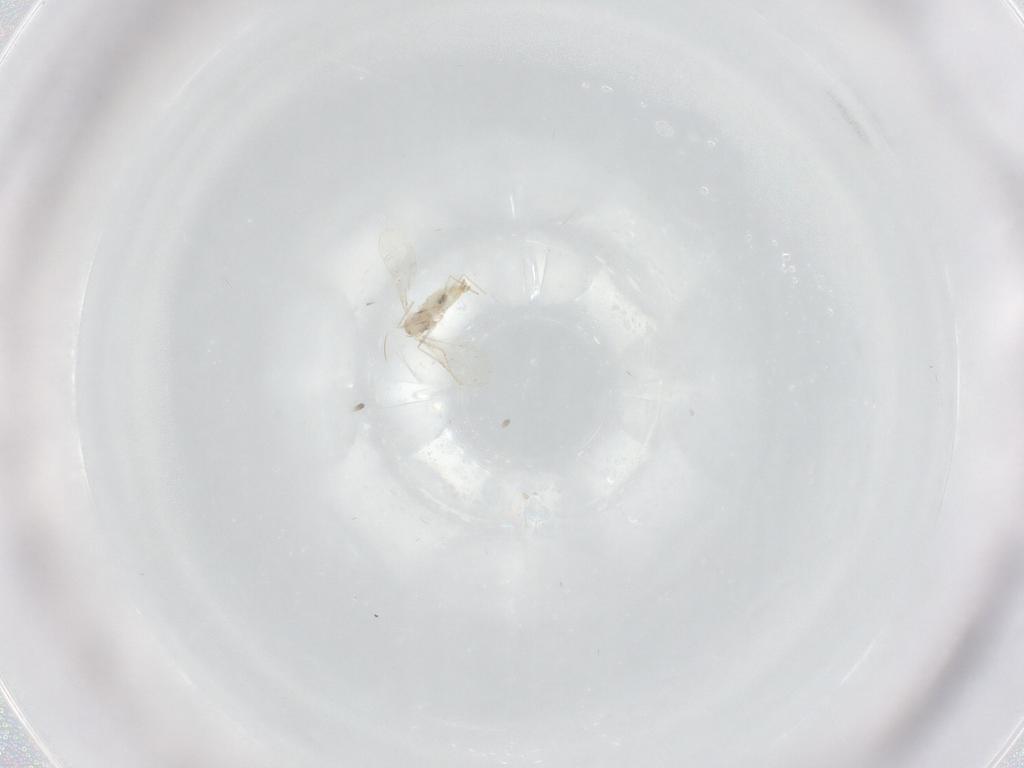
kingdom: Animalia
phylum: Arthropoda
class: Insecta
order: Diptera
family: Cecidomyiidae
